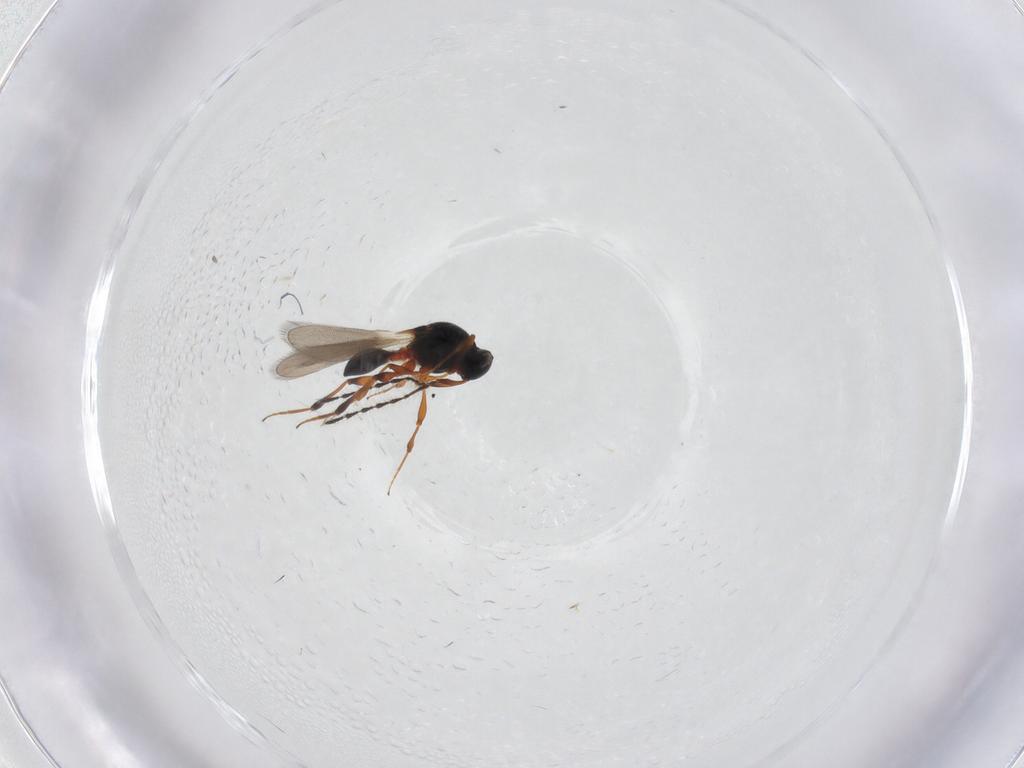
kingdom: Animalia
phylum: Arthropoda
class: Insecta
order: Hymenoptera
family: Platygastridae
